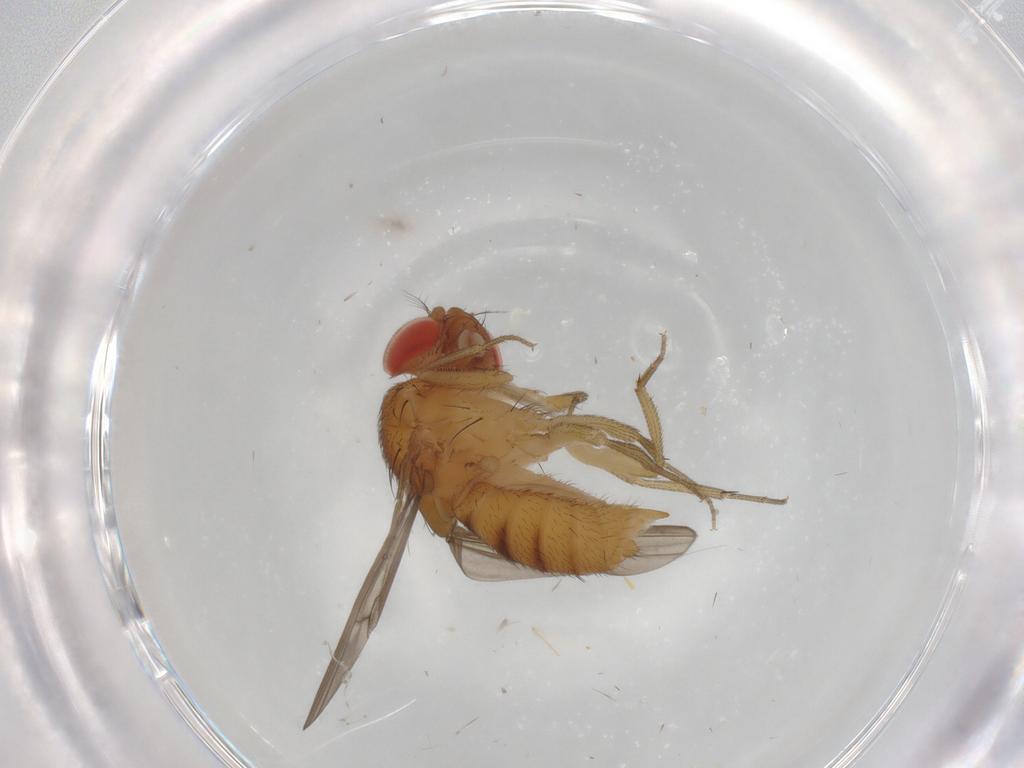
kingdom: Animalia
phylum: Arthropoda
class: Insecta
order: Diptera
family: Drosophilidae
